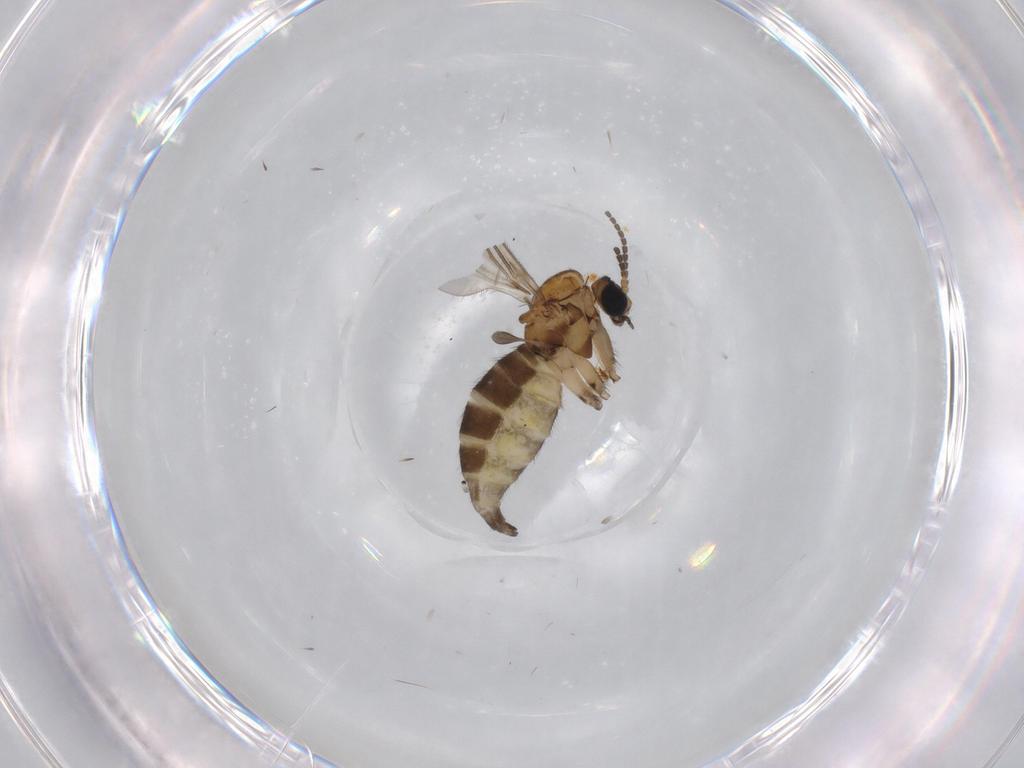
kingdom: Animalia
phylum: Arthropoda
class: Insecta
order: Diptera
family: Sciaridae
